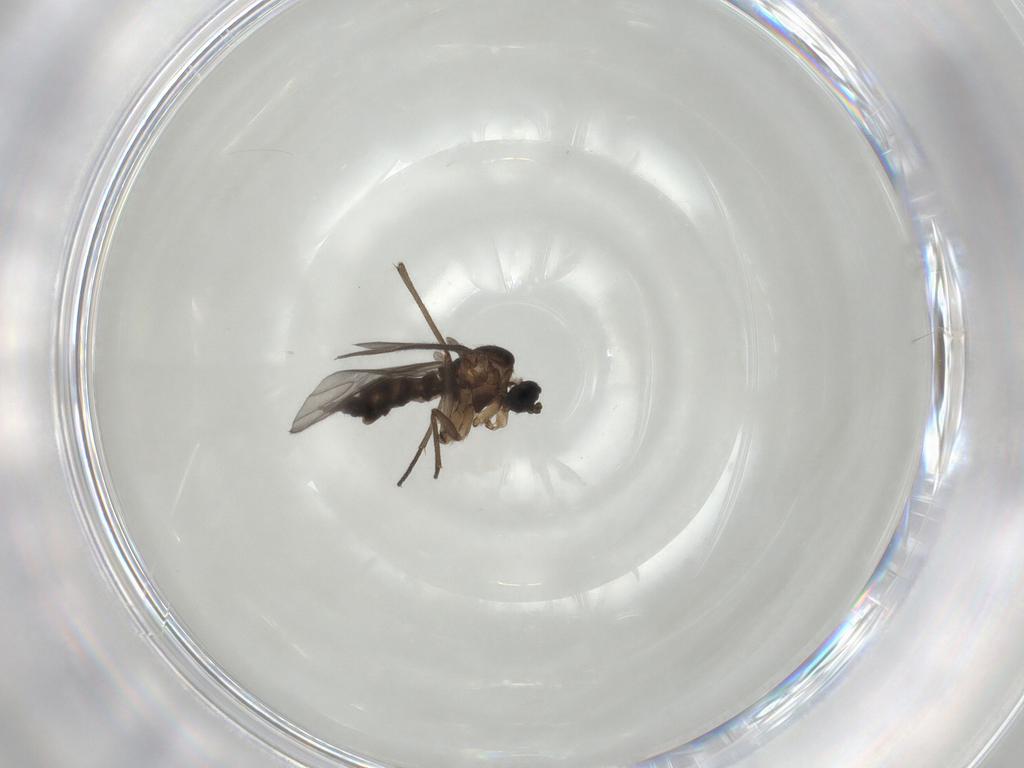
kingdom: Animalia
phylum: Arthropoda
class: Insecta
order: Diptera
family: Sciaridae
